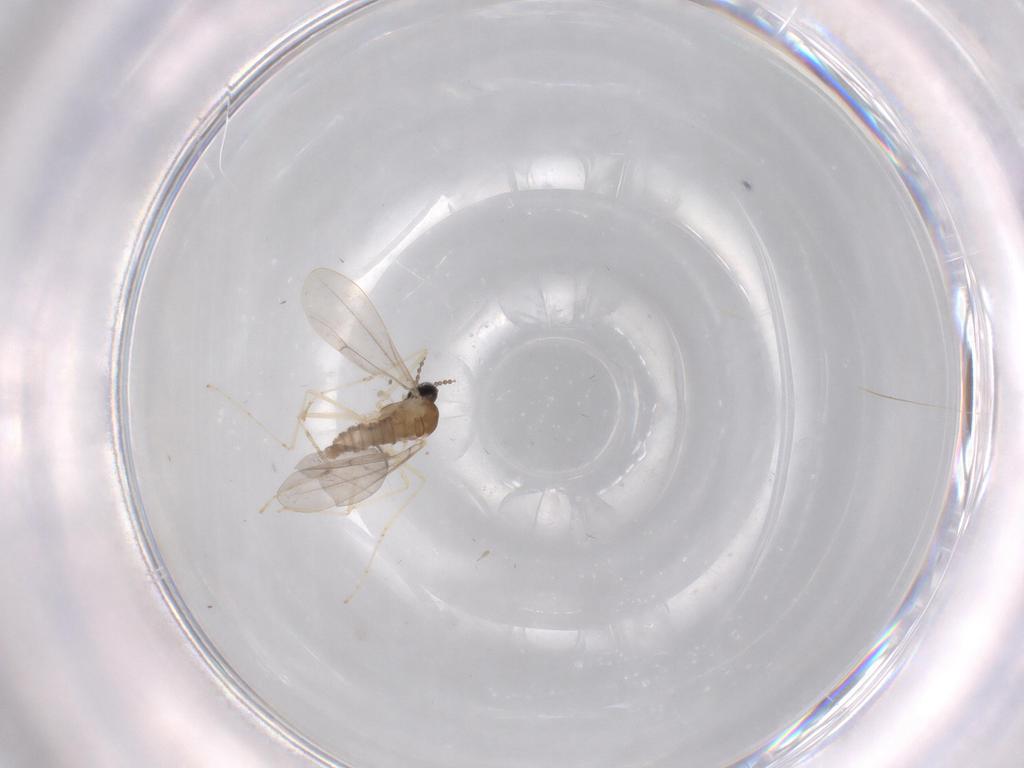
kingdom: Animalia
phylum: Arthropoda
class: Insecta
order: Diptera
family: Cecidomyiidae
